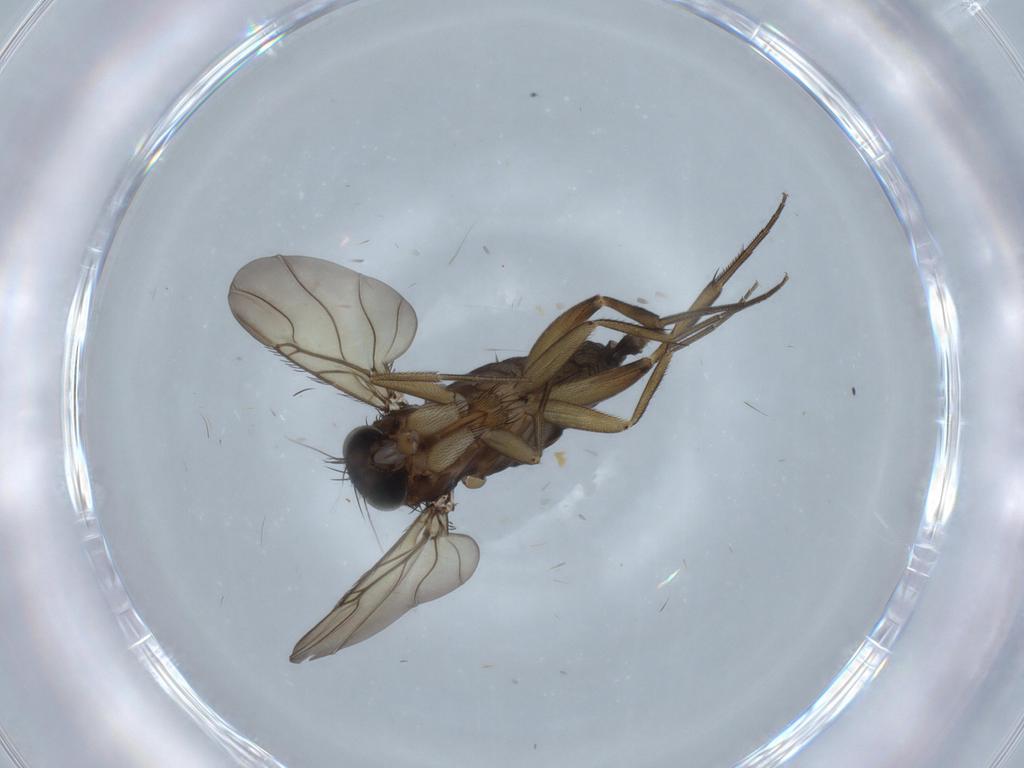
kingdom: Animalia
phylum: Arthropoda
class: Insecta
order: Diptera
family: Phoridae
